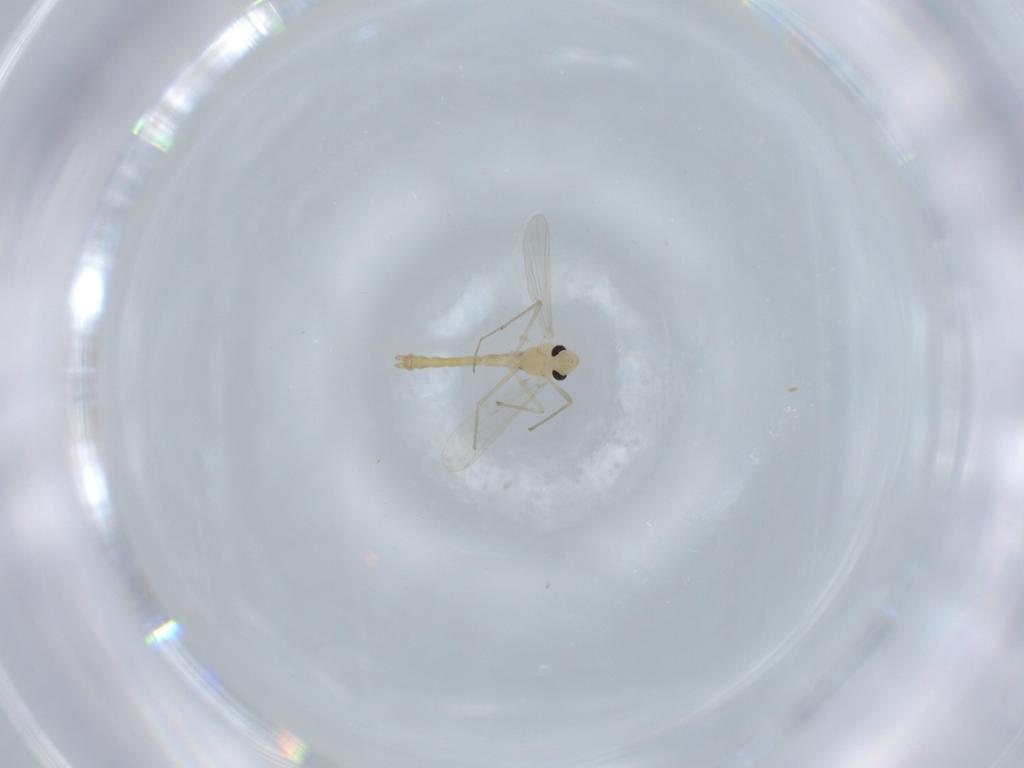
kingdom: Animalia
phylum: Arthropoda
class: Insecta
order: Diptera
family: Chironomidae
